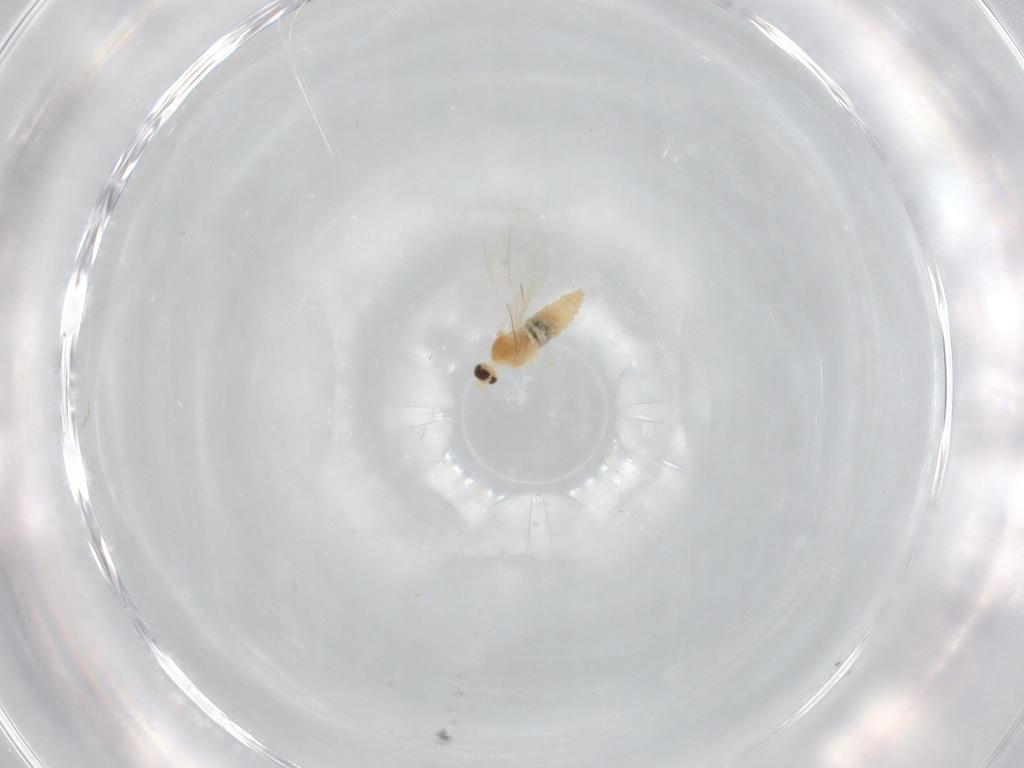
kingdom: Animalia
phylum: Arthropoda
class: Insecta
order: Diptera
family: Cecidomyiidae
